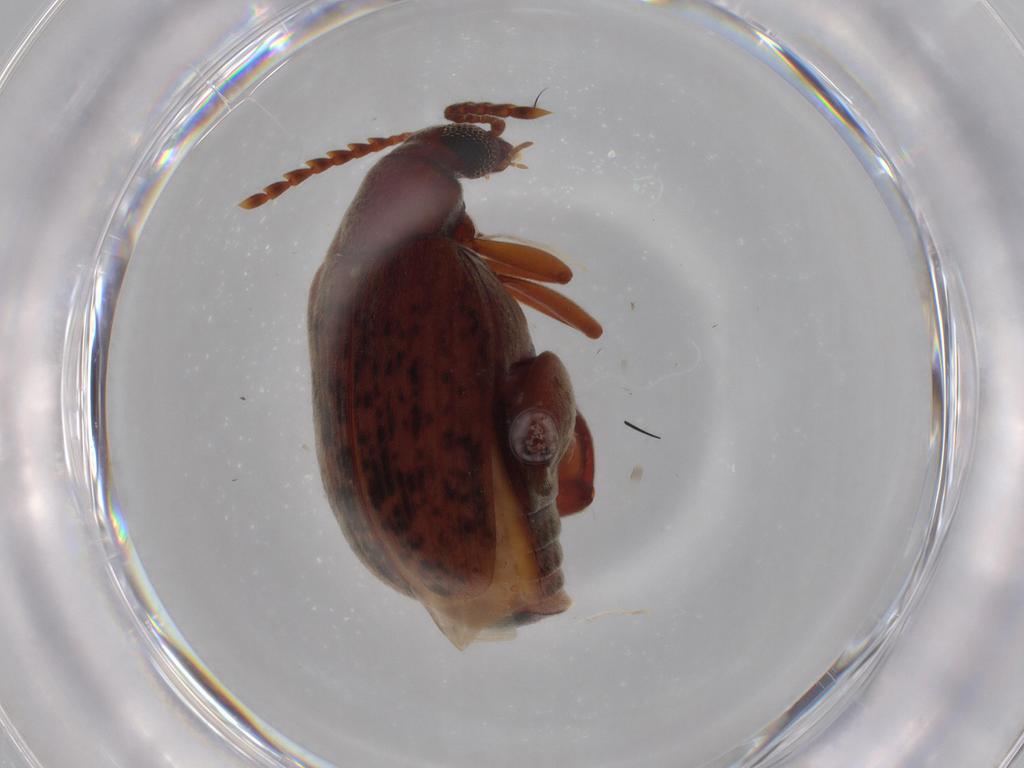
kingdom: Animalia
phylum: Arthropoda
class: Insecta
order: Coleoptera
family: Chrysomelidae
